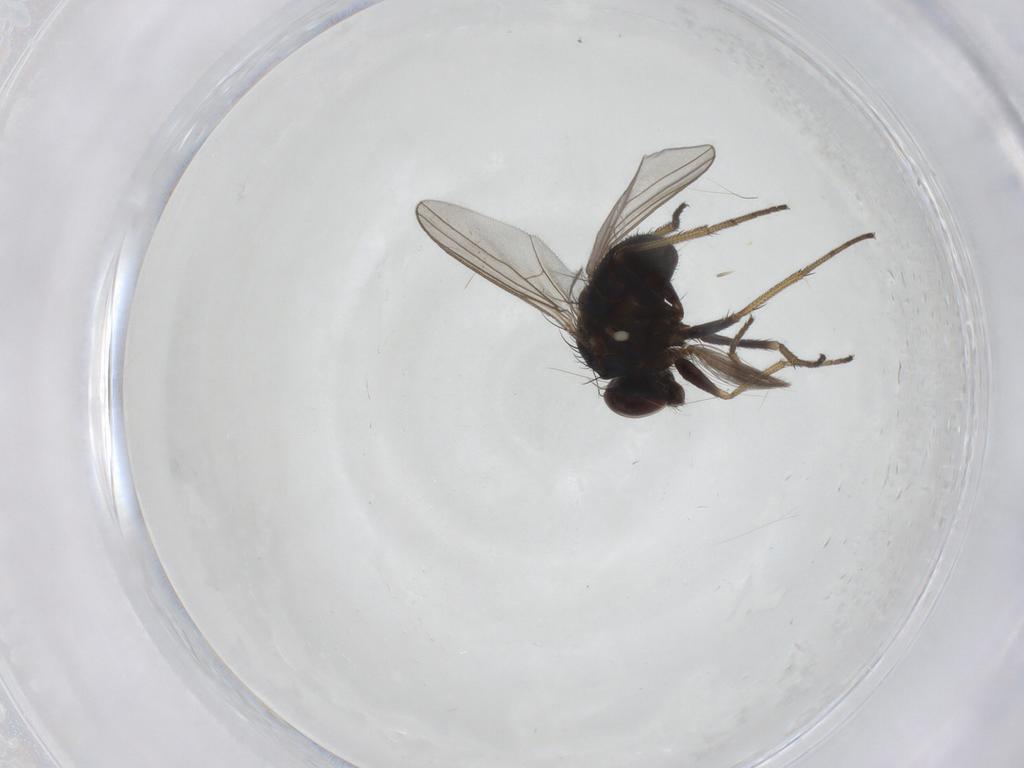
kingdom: Animalia
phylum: Arthropoda
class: Insecta
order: Diptera
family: Dolichopodidae
